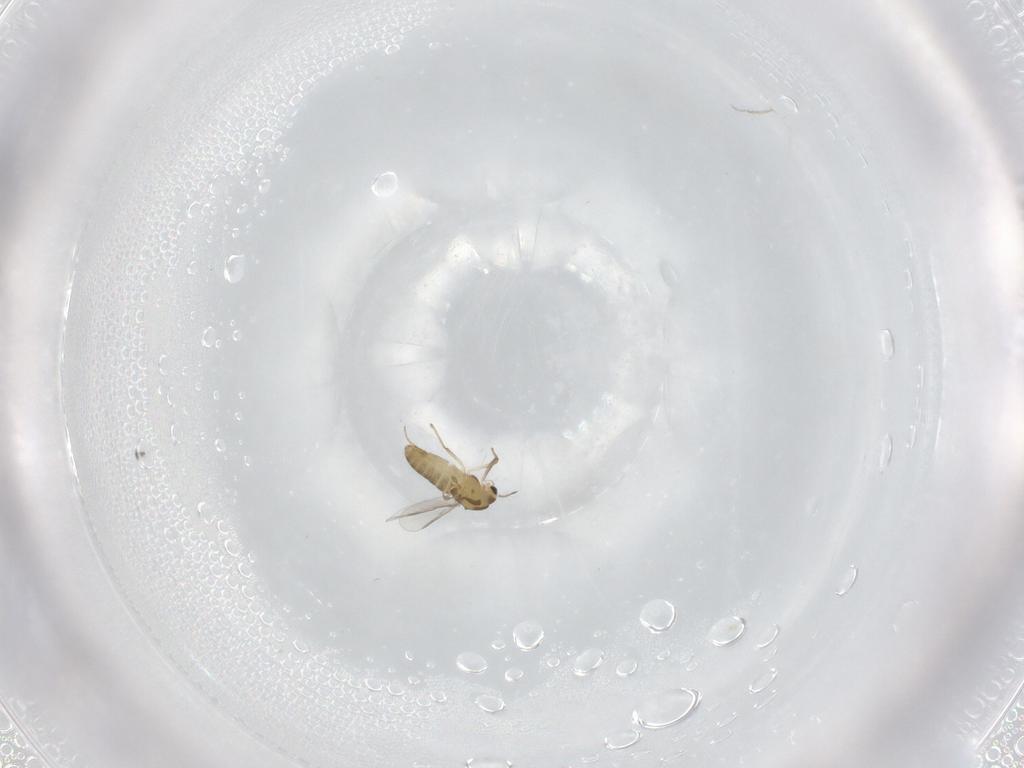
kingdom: Animalia
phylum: Arthropoda
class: Insecta
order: Diptera
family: Chironomidae
